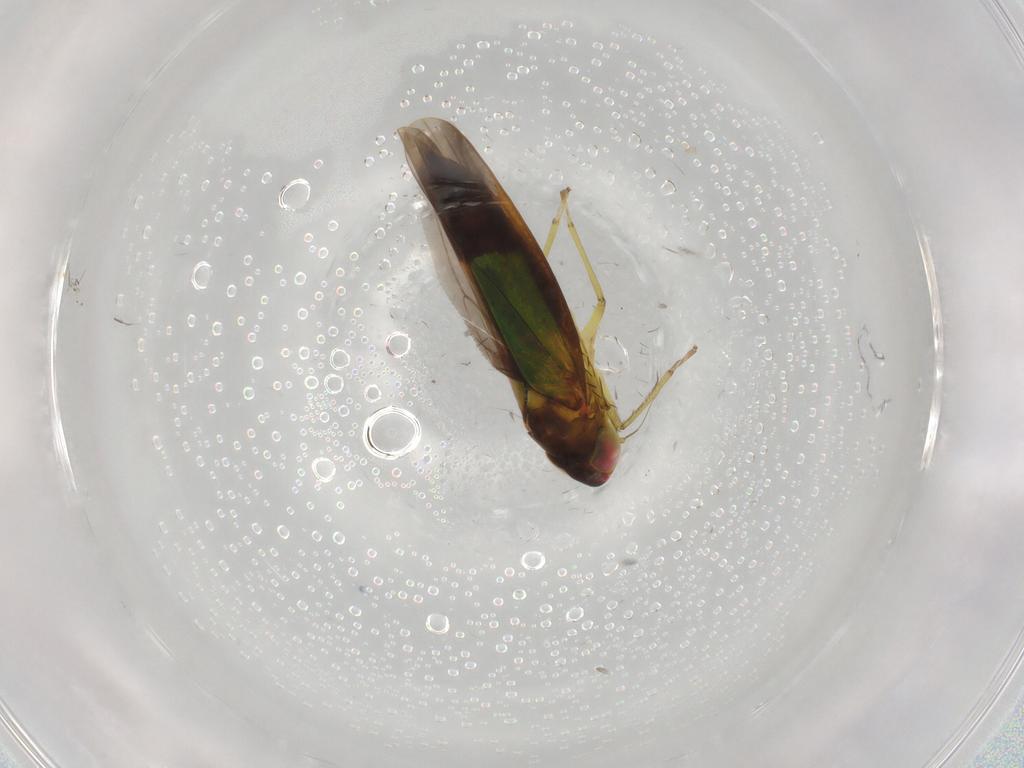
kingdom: Animalia
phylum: Arthropoda
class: Insecta
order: Hemiptera
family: Cicadellidae
